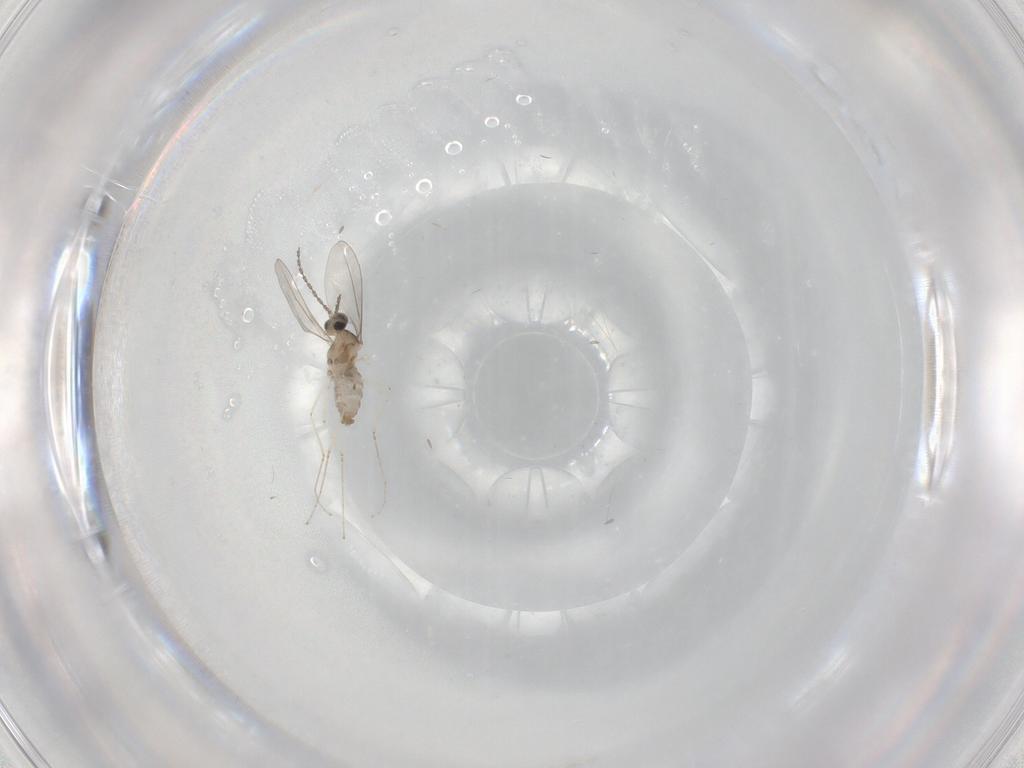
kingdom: Animalia
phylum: Arthropoda
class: Insecta
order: Diptera
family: Cecidomyiidae
